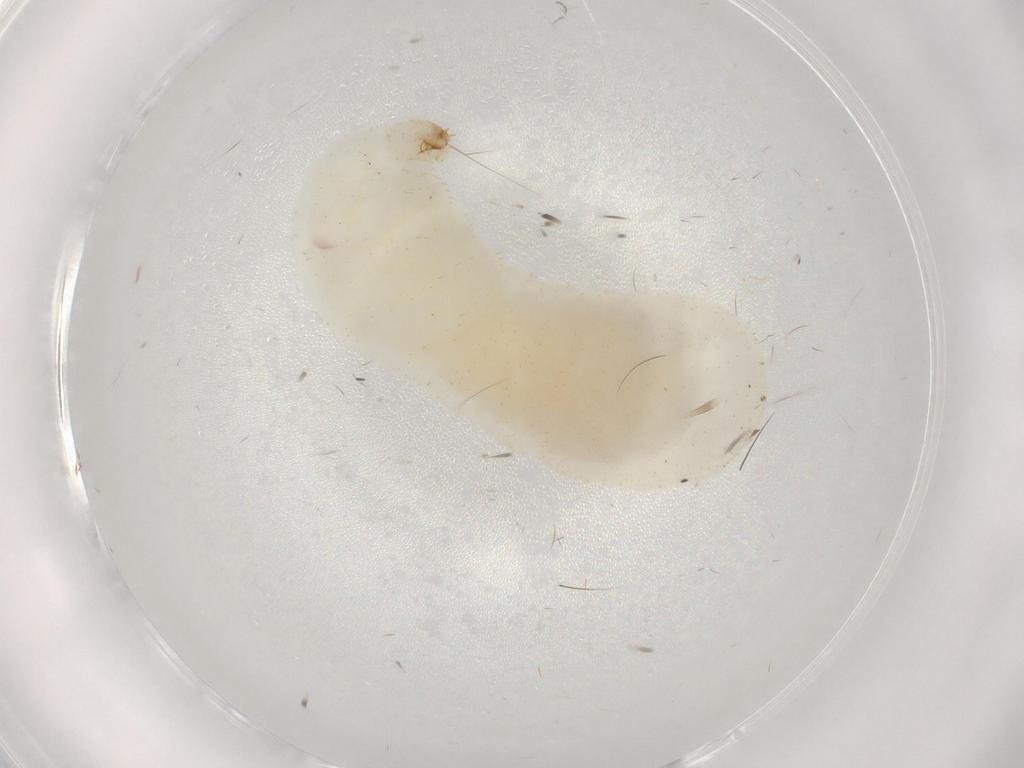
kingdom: Animalia
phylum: Arthropoda
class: Insecta
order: Hymenoptera
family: Formicidae
